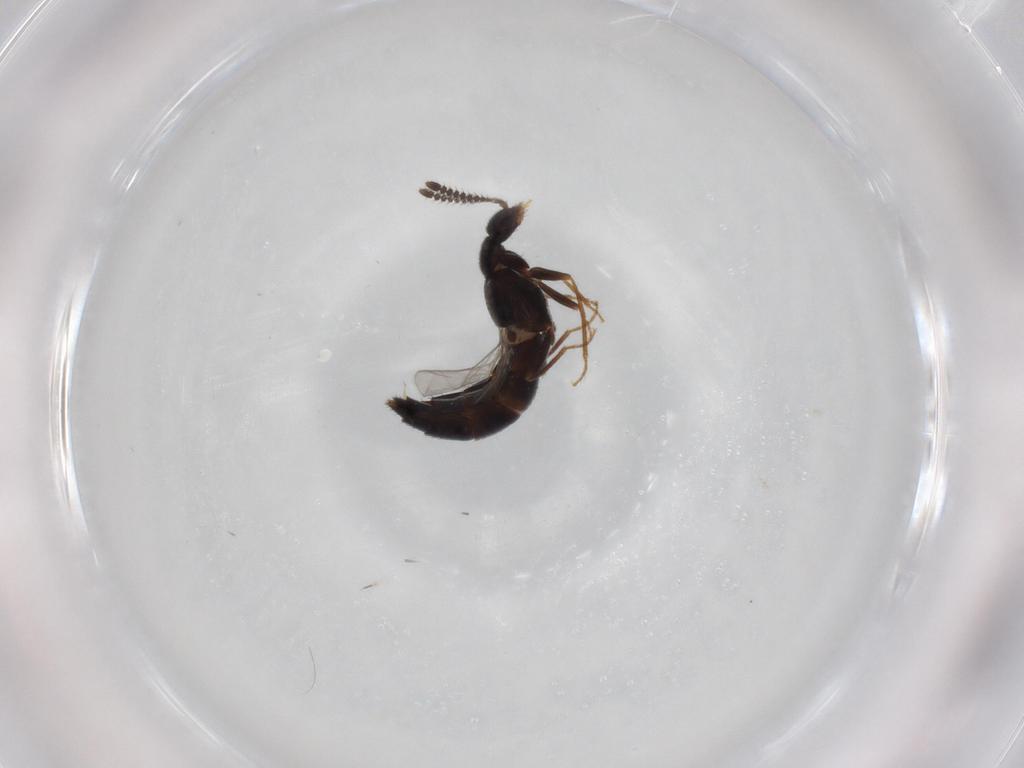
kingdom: Animalia
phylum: Arthropoda
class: Insecta
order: Coleoptera
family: Staphylinidae
